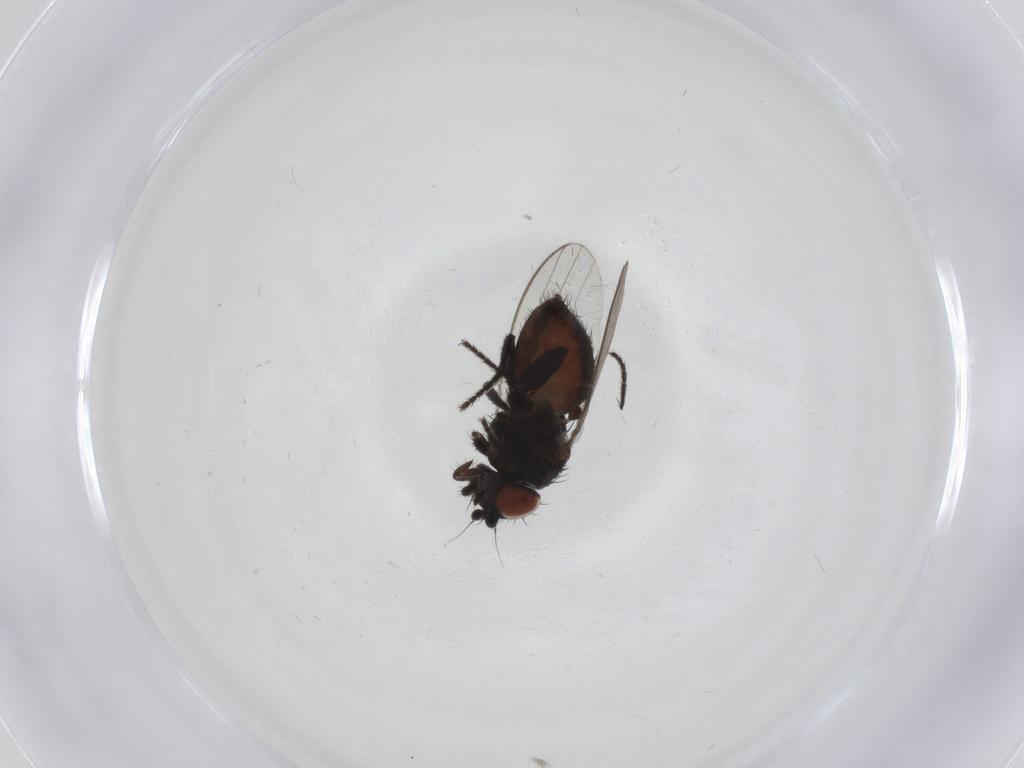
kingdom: Animalia
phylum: Arthropoda
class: Insecta
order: Diptera
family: Milichiidae
